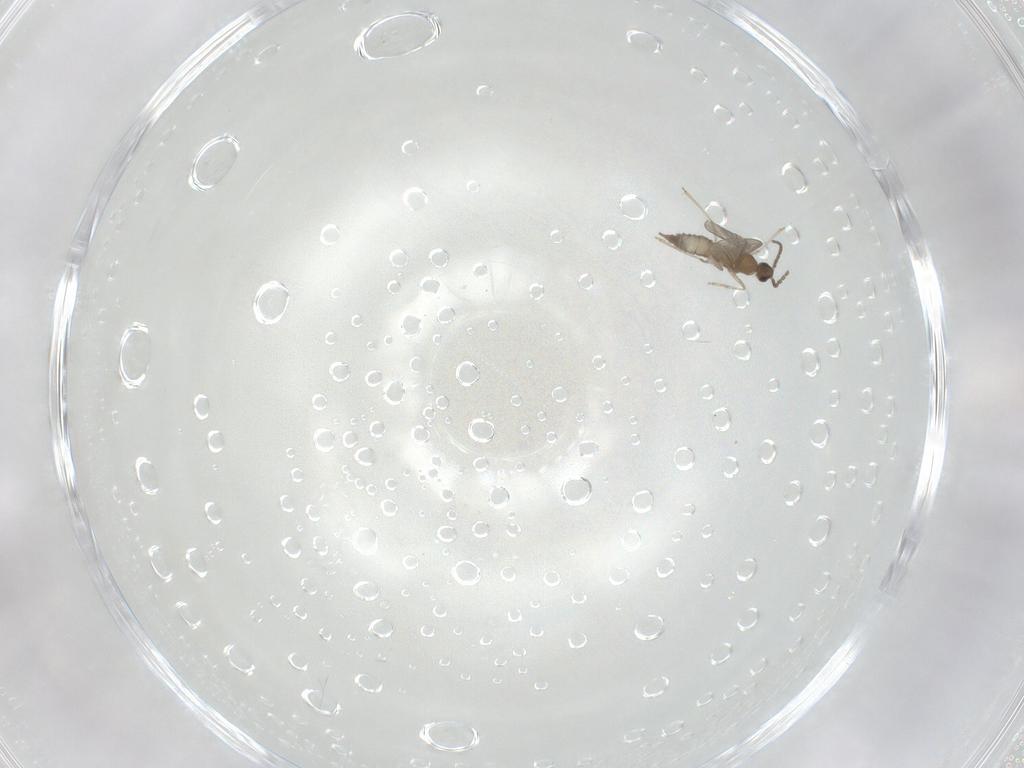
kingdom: Animalia
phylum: Arthropoda
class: Insecta
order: Diptera
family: Cecidomyiidae
